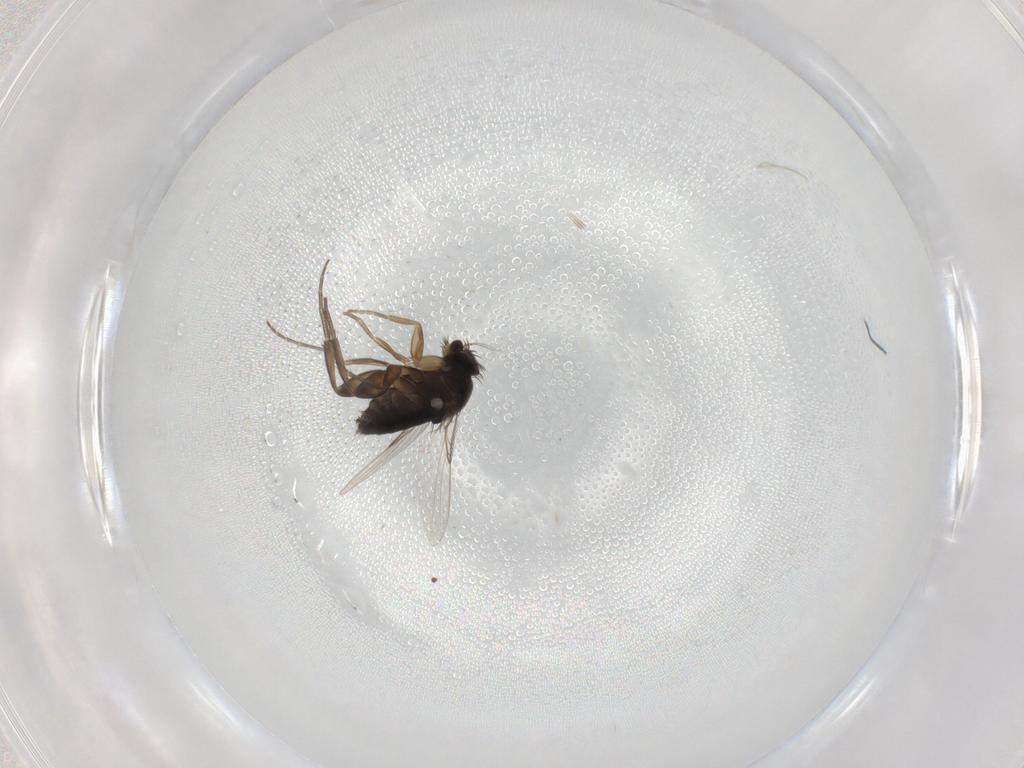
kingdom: Animalia
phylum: Arthropoda
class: Insecta
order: Diptera
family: Phoridae
